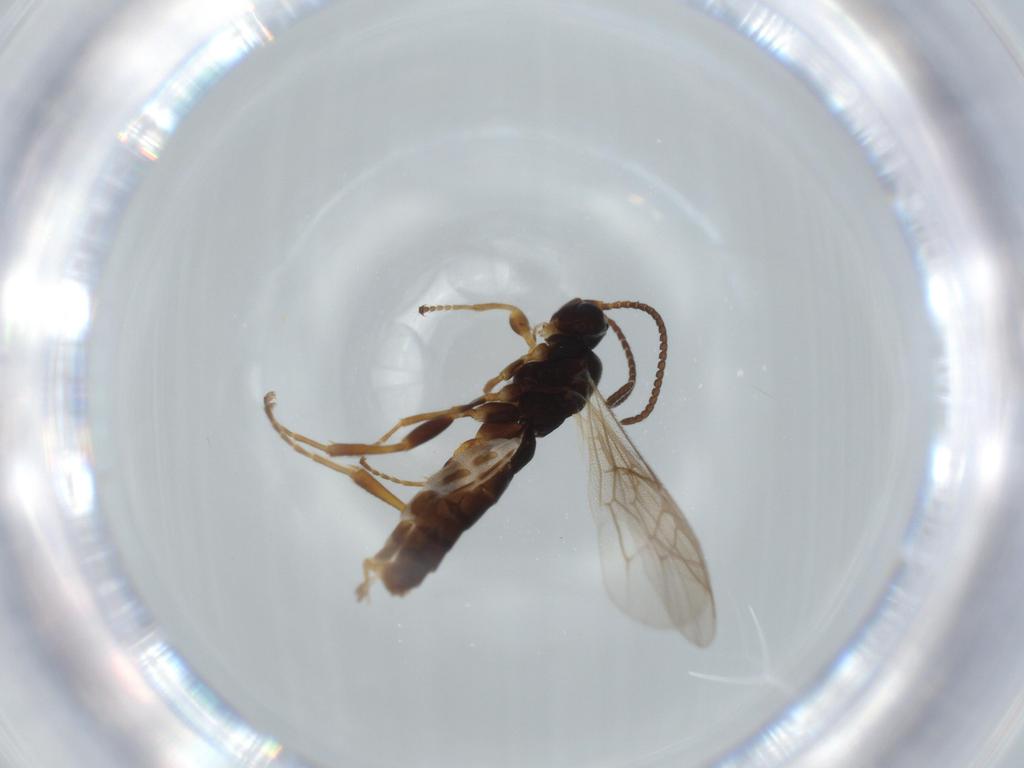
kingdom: Animalia
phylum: Arthropoda
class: Insecta
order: Hymenoptera
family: Ichneumonidae
